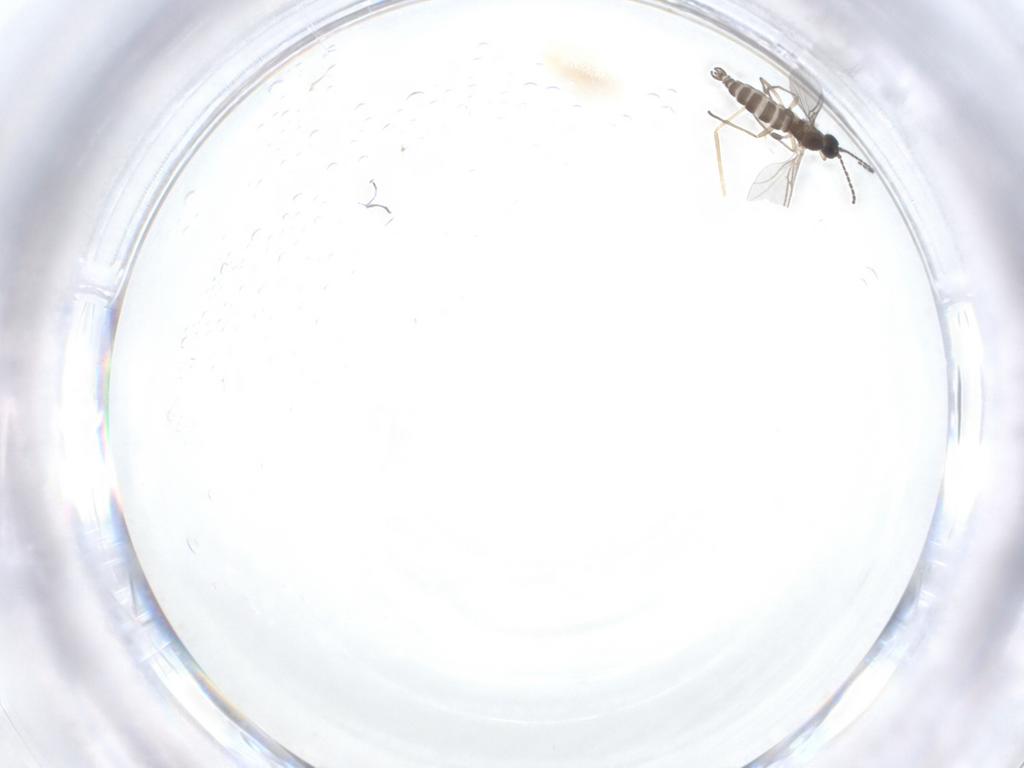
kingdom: Animalia
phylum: Arthropoda
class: Insecta
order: Diptera
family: Sciaridae
